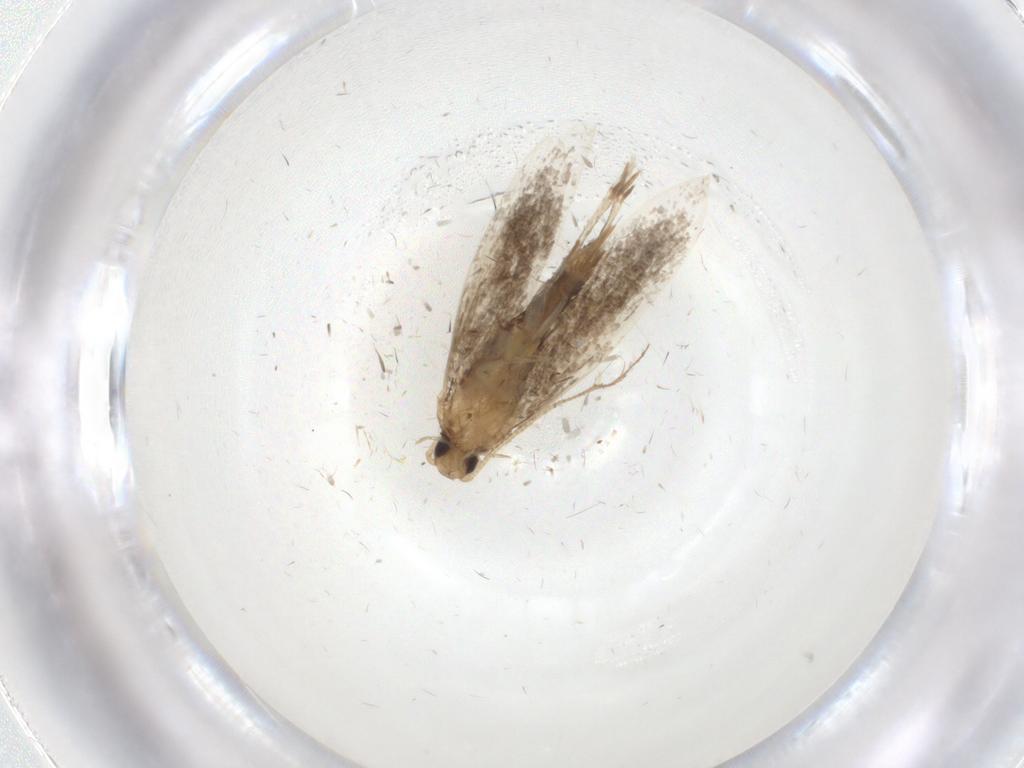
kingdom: Animalia
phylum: Arthropoda
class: Insecta
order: Lepidoptera
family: Tineidae
